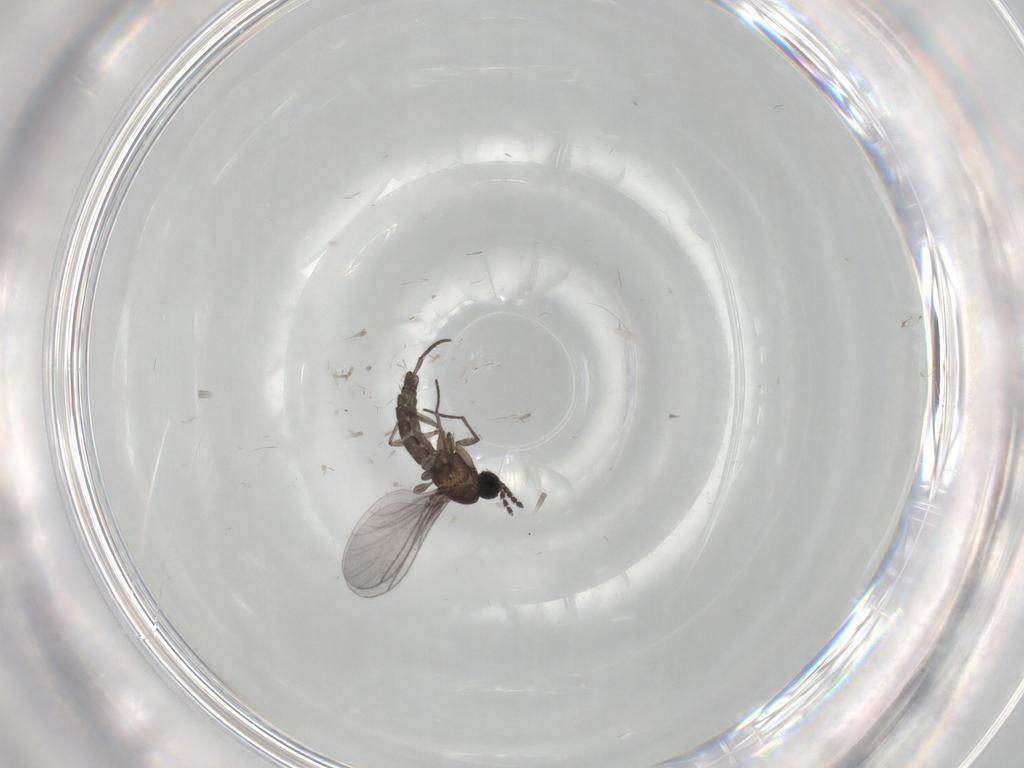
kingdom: Animalia
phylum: Arthropoda
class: Insecta
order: Diptera
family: Sciaridae
